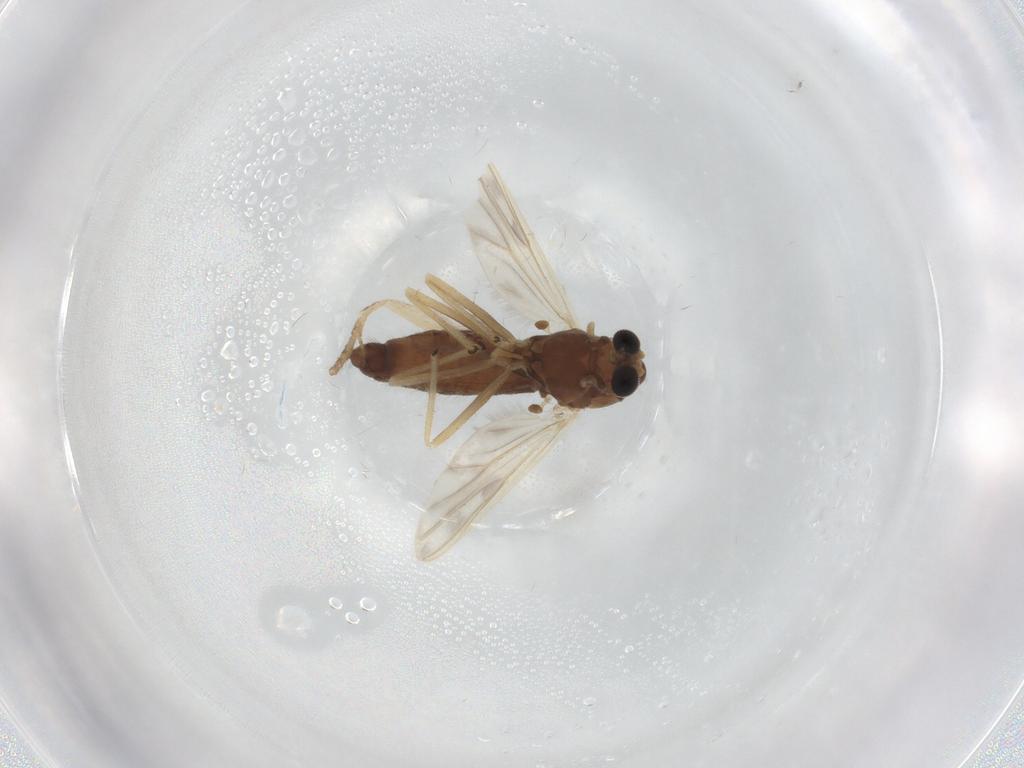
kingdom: Animalia
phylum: Arthropoda
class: Insecta
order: Diptera
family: Chironomidae
